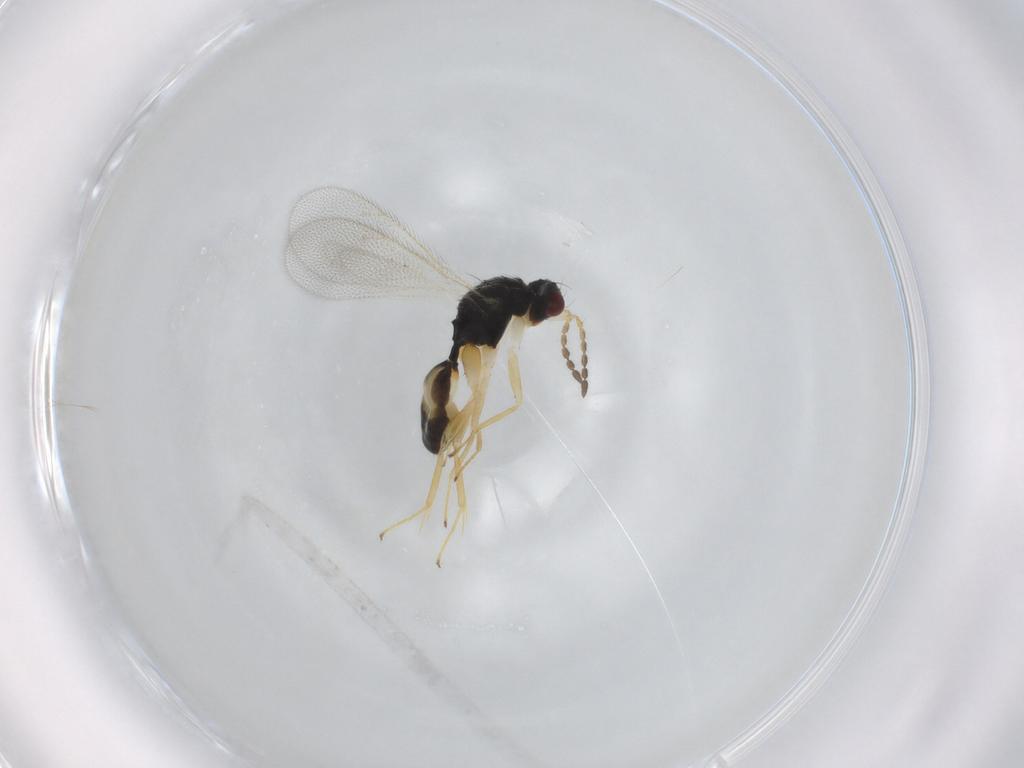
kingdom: Animalia
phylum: Arthropoda
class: Insecta
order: Hymenoptera
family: Eulophidae
